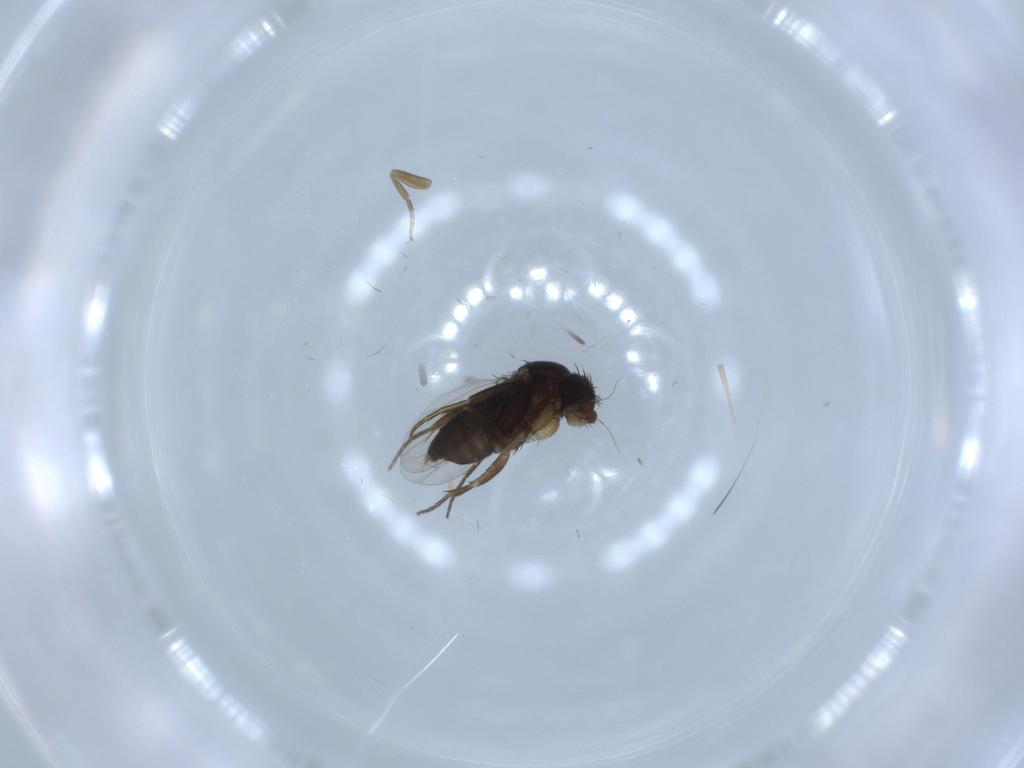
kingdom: Animalia
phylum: Arthropoda
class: Insecta
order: Diptera
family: Phoridae
